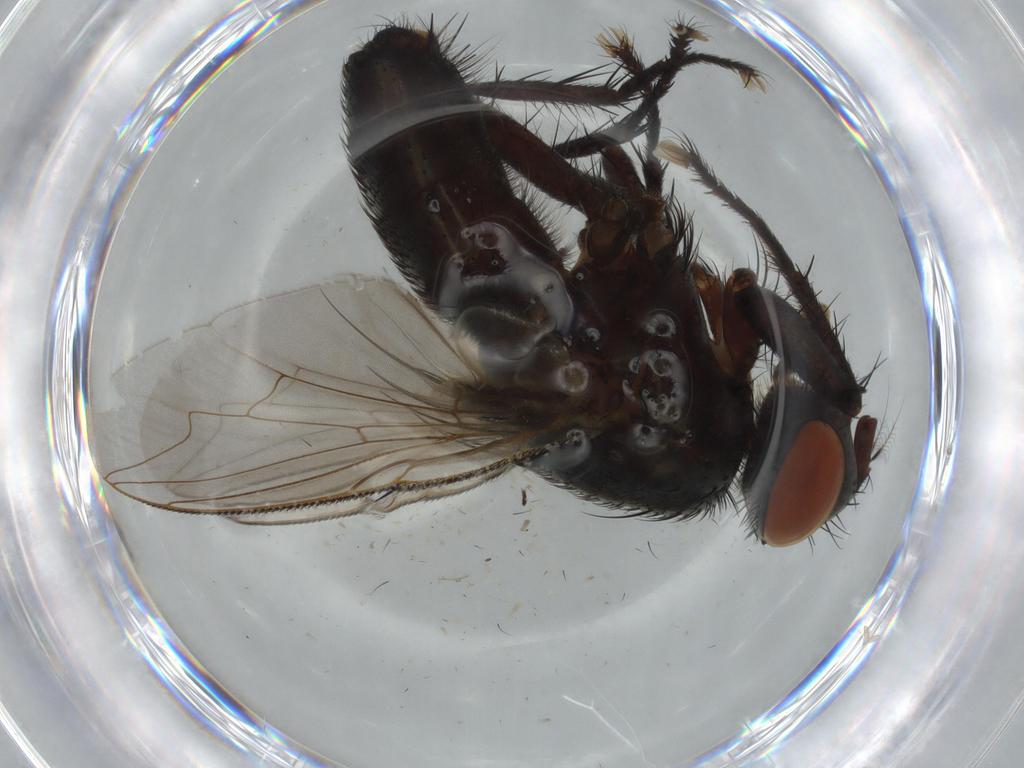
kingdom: Animalia
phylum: Arthropoda
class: Insecta
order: Diptera
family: Sarcophagidae
